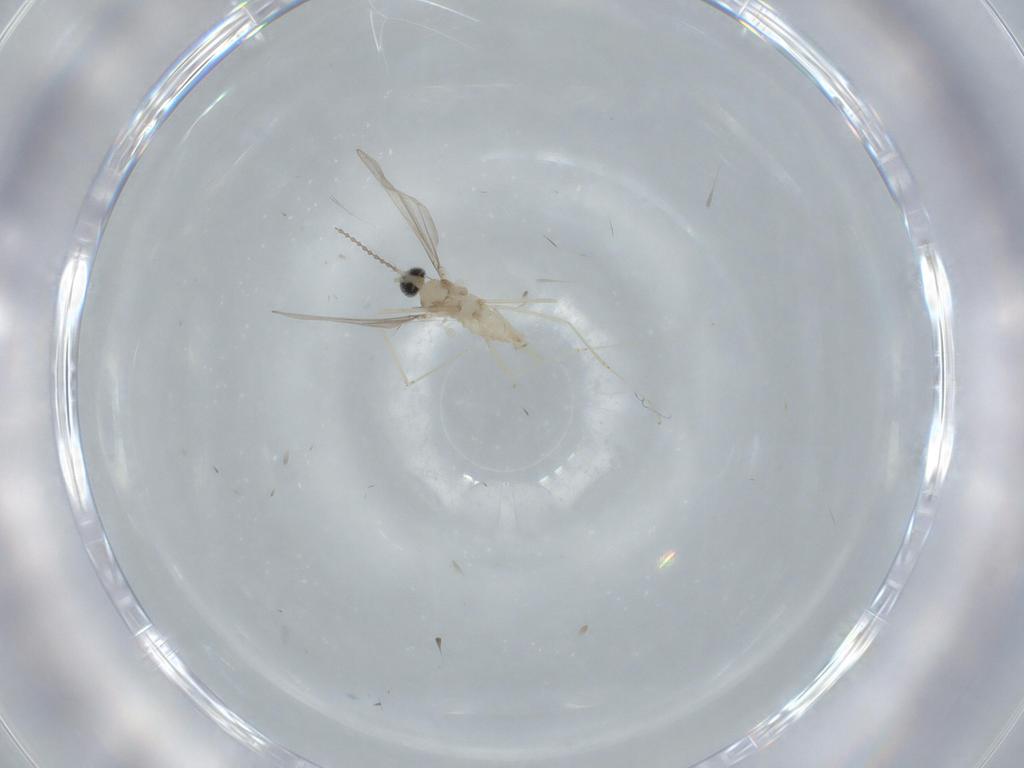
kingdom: Animalia
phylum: Arthropoda
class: Insecta
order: Diptera
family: Cecidomyiidae
